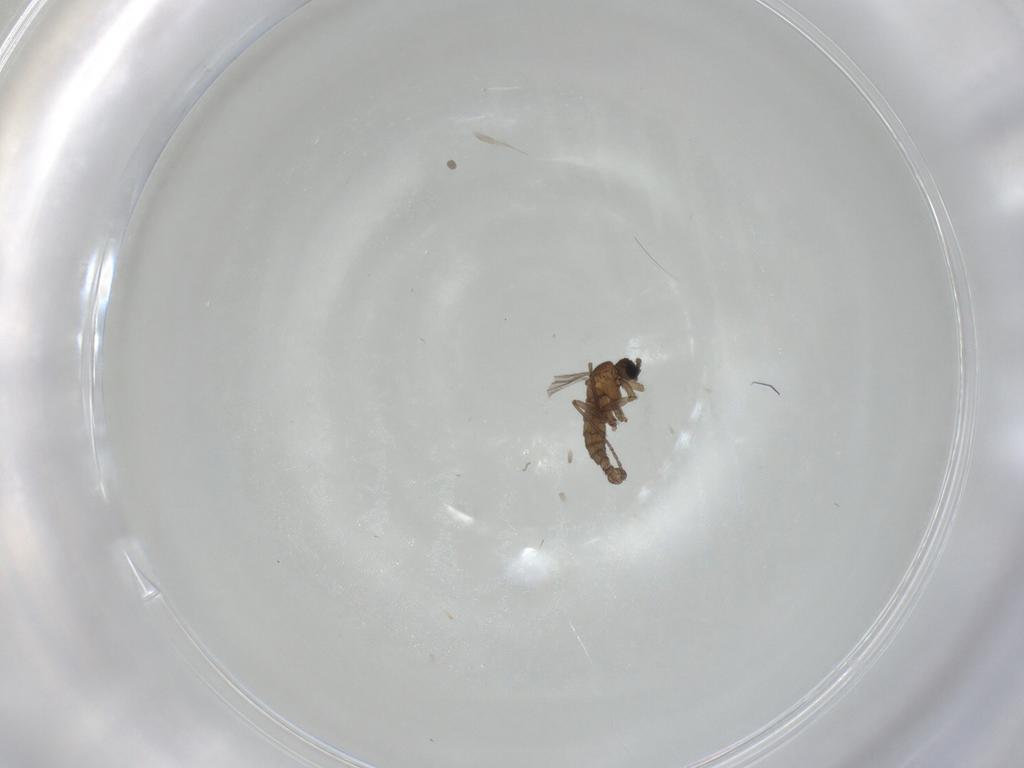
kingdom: Animalia
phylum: Arthropoda
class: Insecta
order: Diptera
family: Sciaridae
